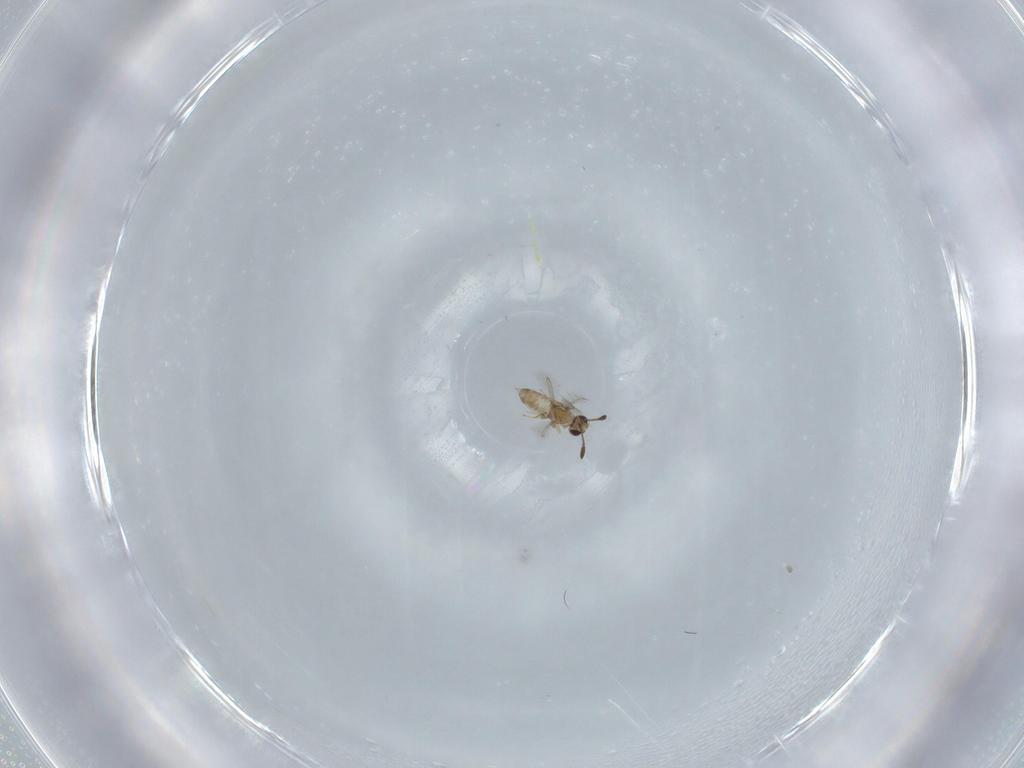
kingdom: Animalia
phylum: Arthropoda
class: Insecta
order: Hymenoptera
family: Mymaridae
